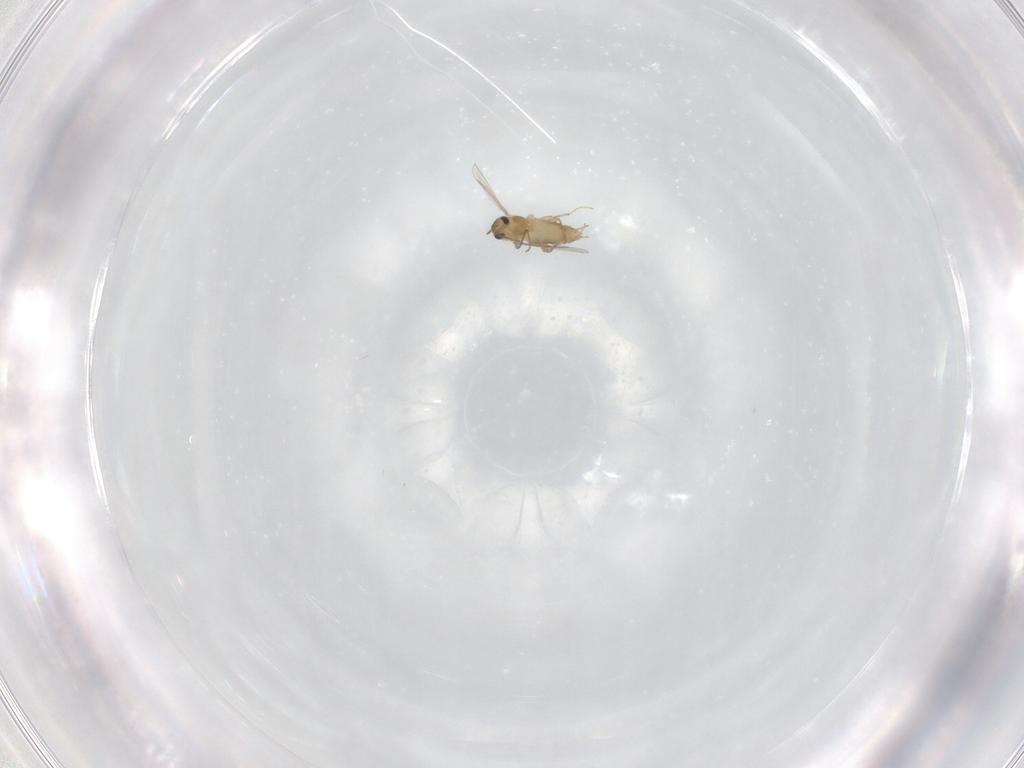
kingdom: Animalia
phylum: Arthropoda
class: Insecta
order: Diptera
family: Chironomidae
